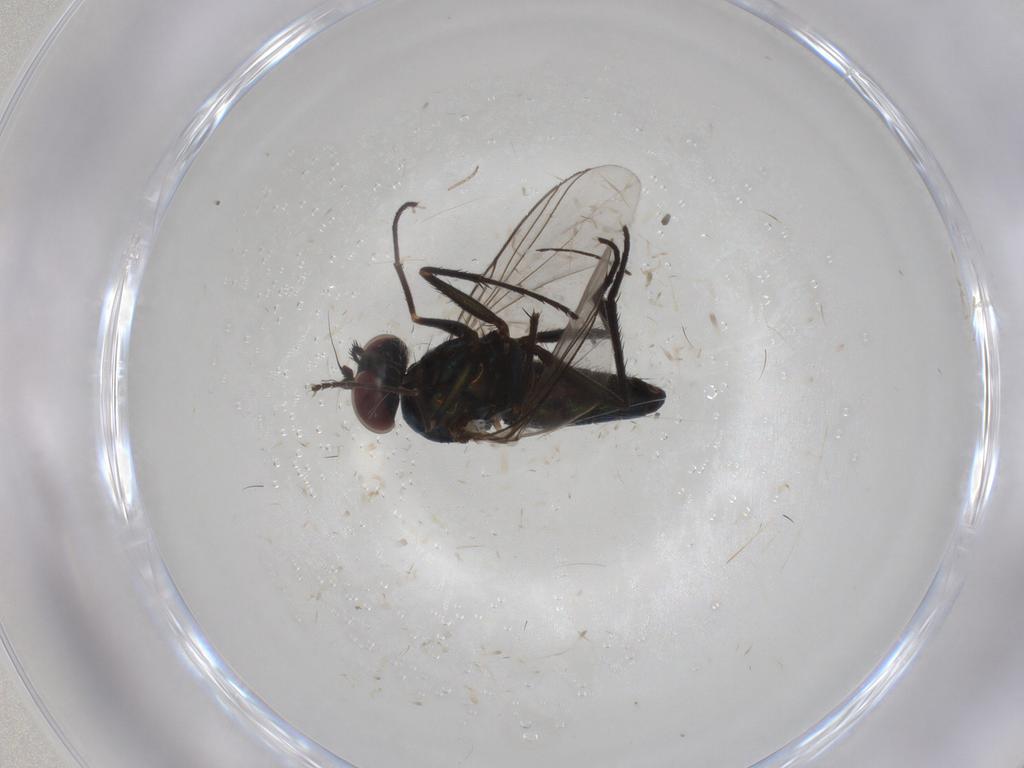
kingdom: Animalia
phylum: Arthropoda
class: Insecta
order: Diptera
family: Dolichopodidae
